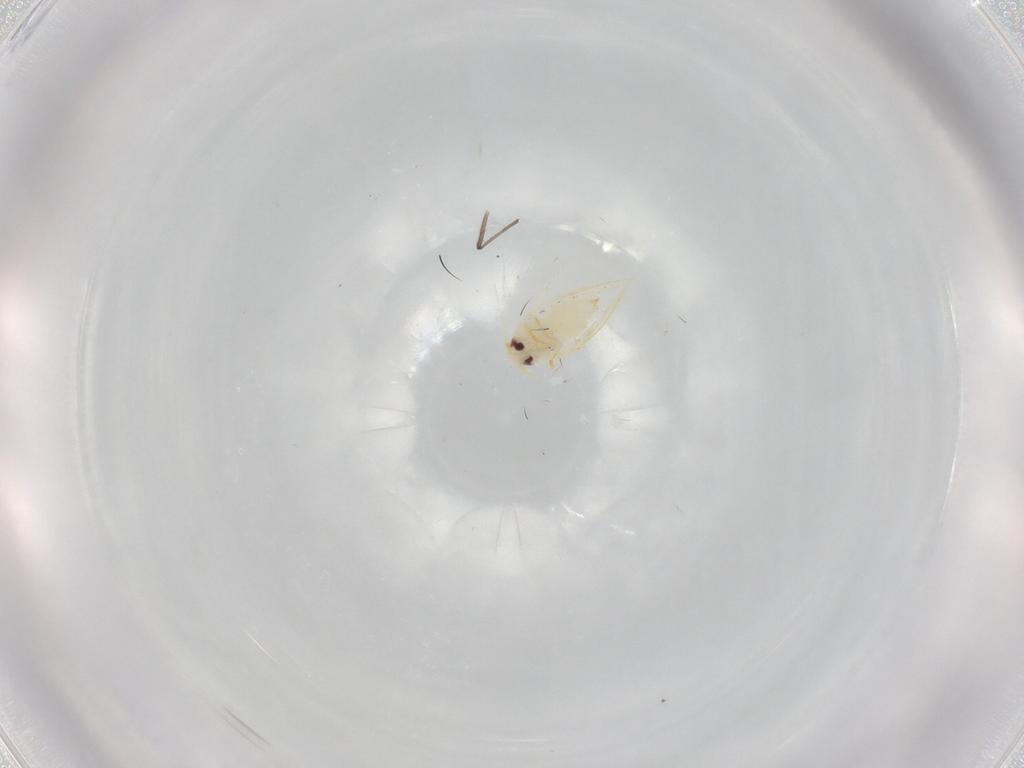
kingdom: Animalia
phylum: Arthropoda
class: Insecta
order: Hemiptera
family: Aleyrodidae
